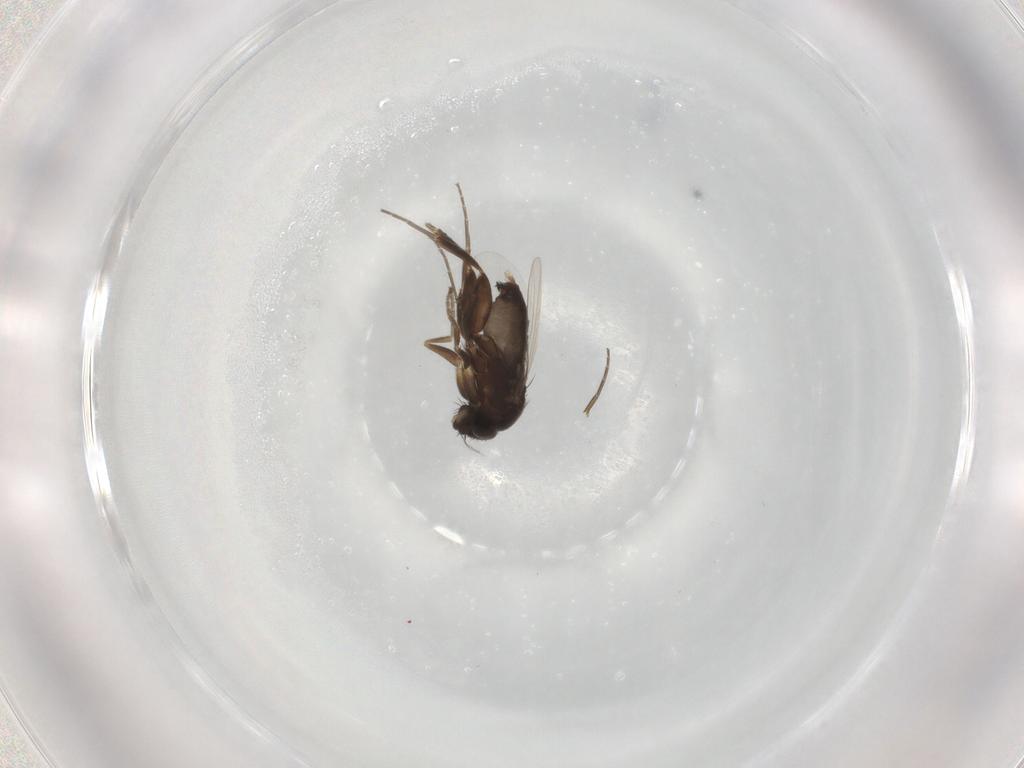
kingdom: Animalia
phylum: Arthropoda
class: Insecta
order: Diptera
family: Phoridae
